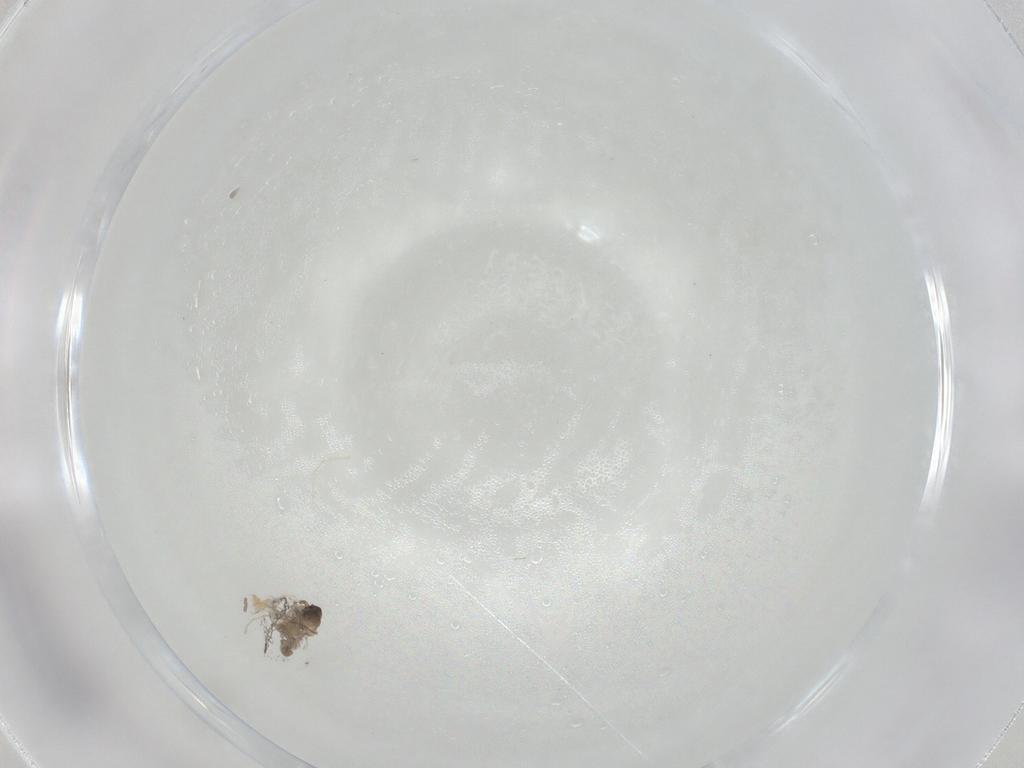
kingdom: Animalia
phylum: Arthropoda
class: Insecta
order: Diptera
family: Cecidomyiidae
